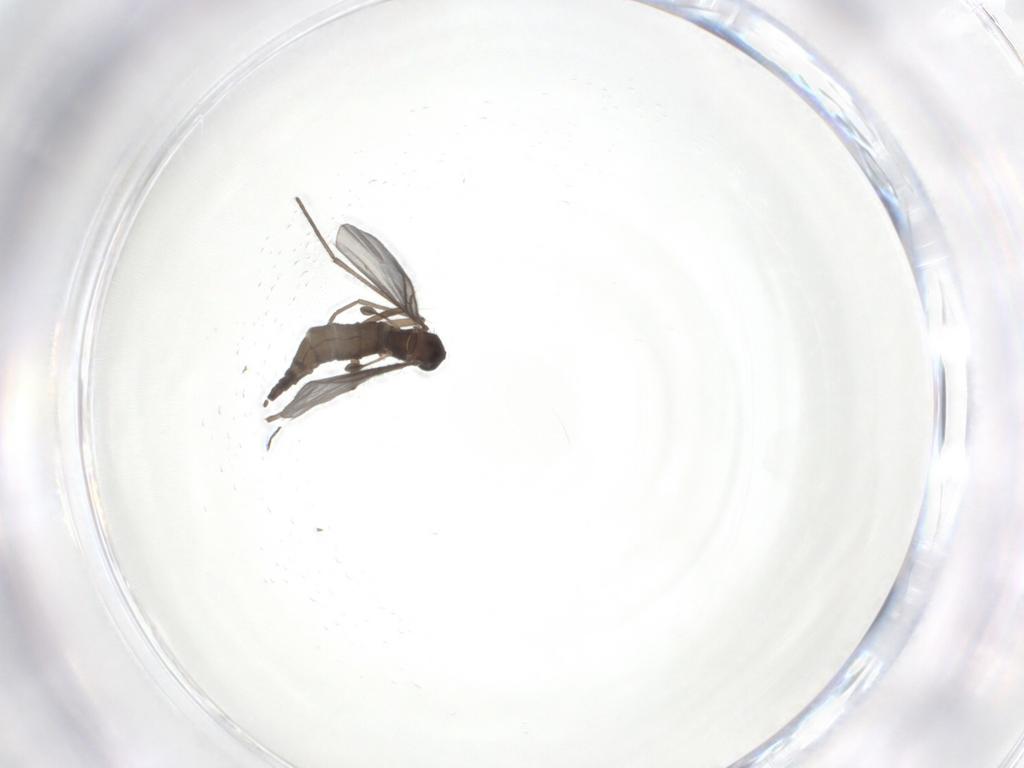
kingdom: Animalia
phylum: Arthropoda
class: Insecta
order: Diptera
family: Sciaridae
